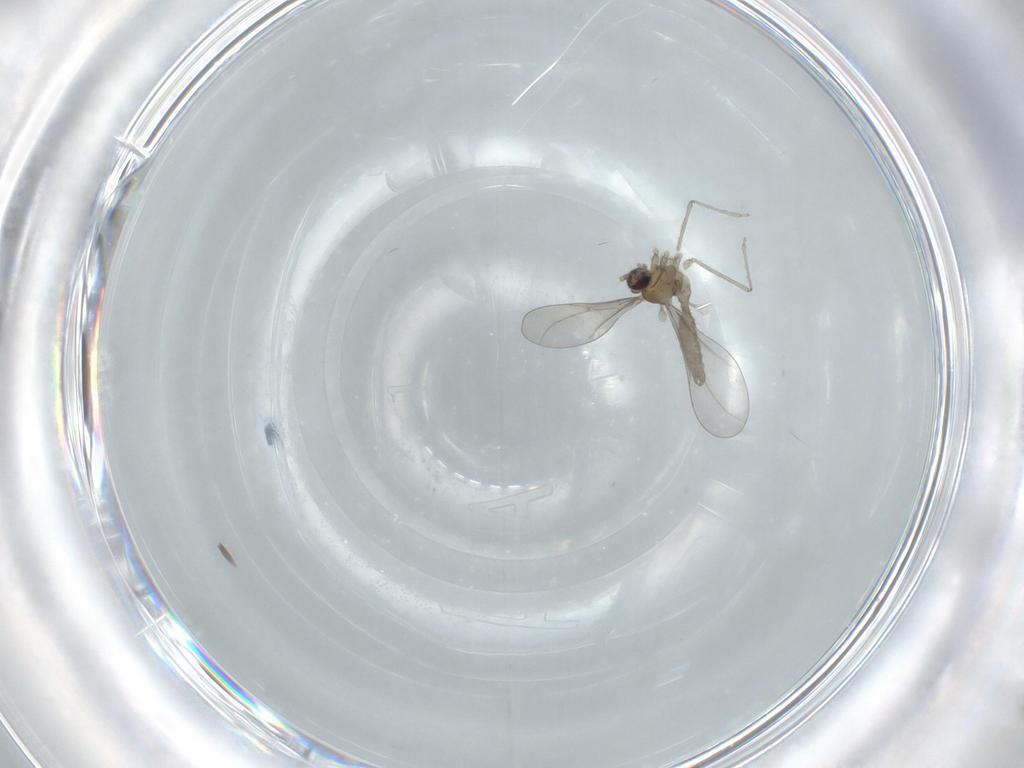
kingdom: Animalia
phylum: Arthropoda
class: Insecta
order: Diptera
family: Cecidomyiidae
